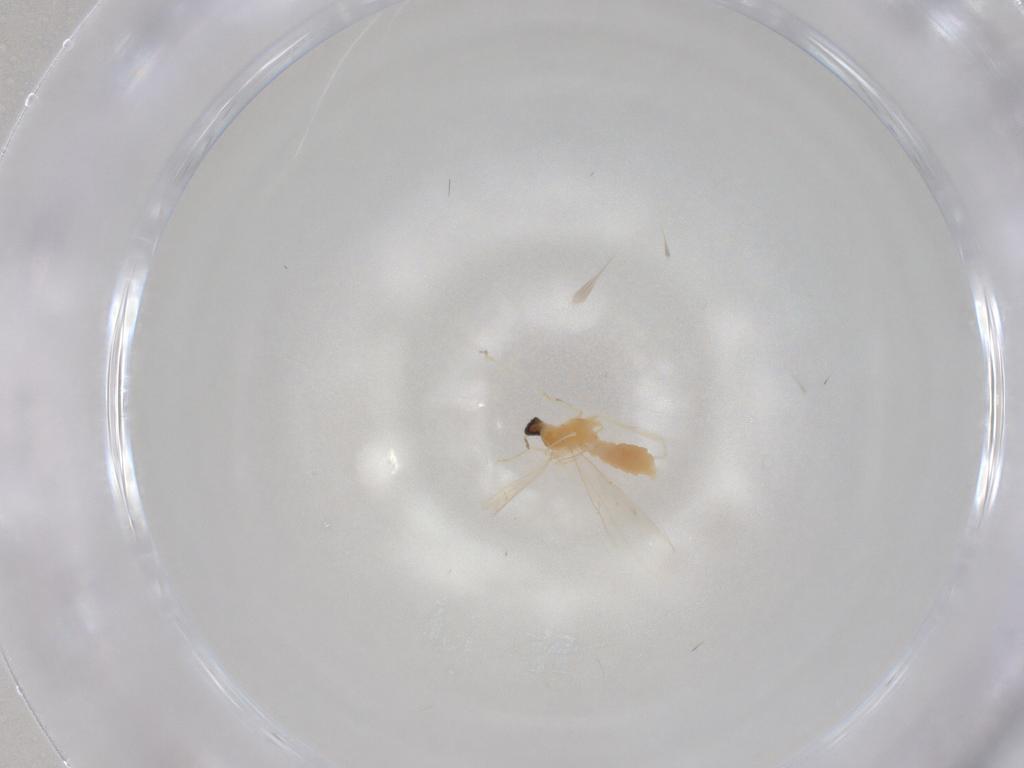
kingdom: Animalia
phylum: Arthropoda
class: Insecta
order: Diptera
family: Cecidomyiidae
